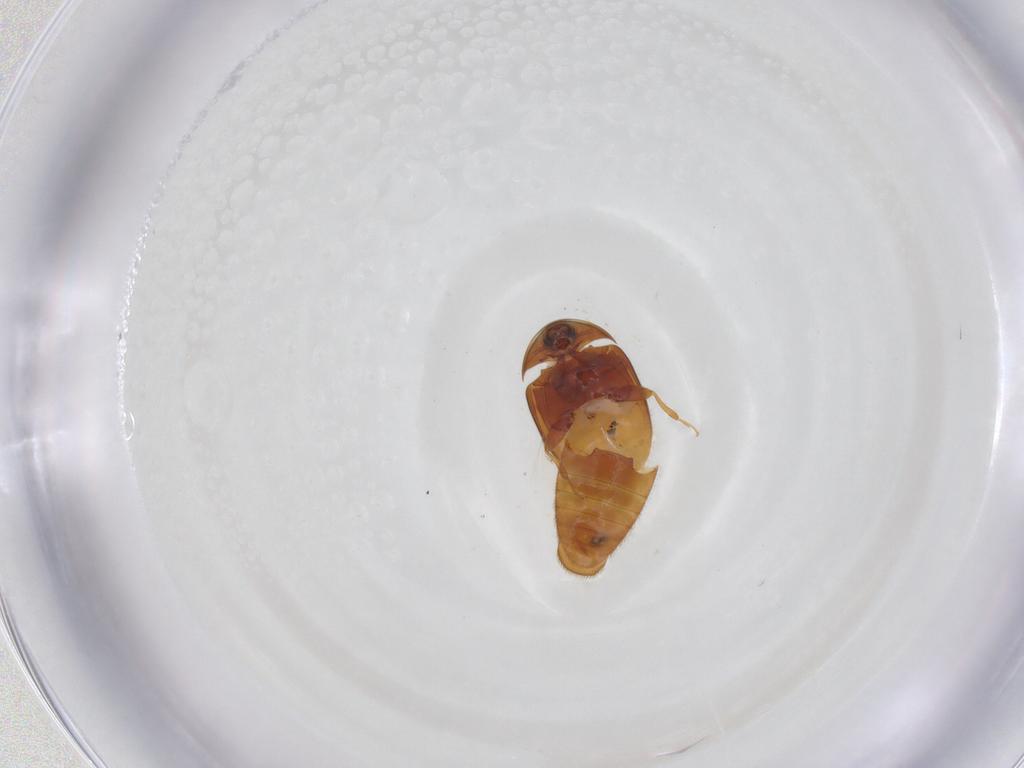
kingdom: Animalia
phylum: Arthropoda
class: Insecta
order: Coleoptera
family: Corylophidae
